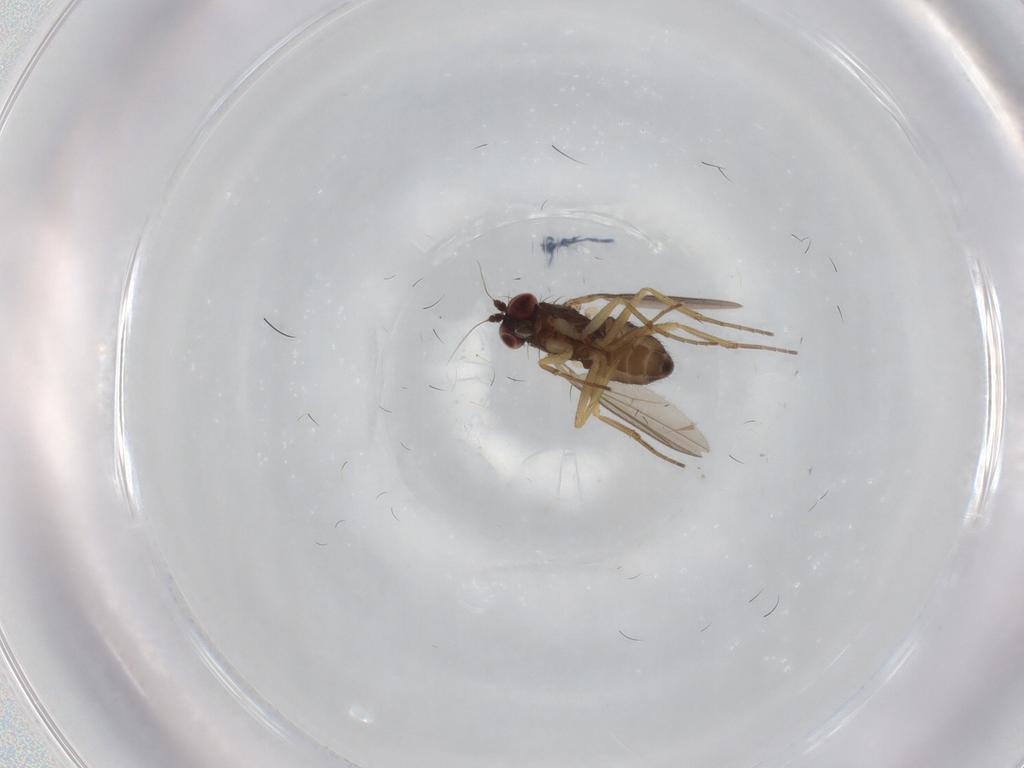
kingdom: Animalia
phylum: Arthropoda
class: Insecta
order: Diptera
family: Dolichopodidae
